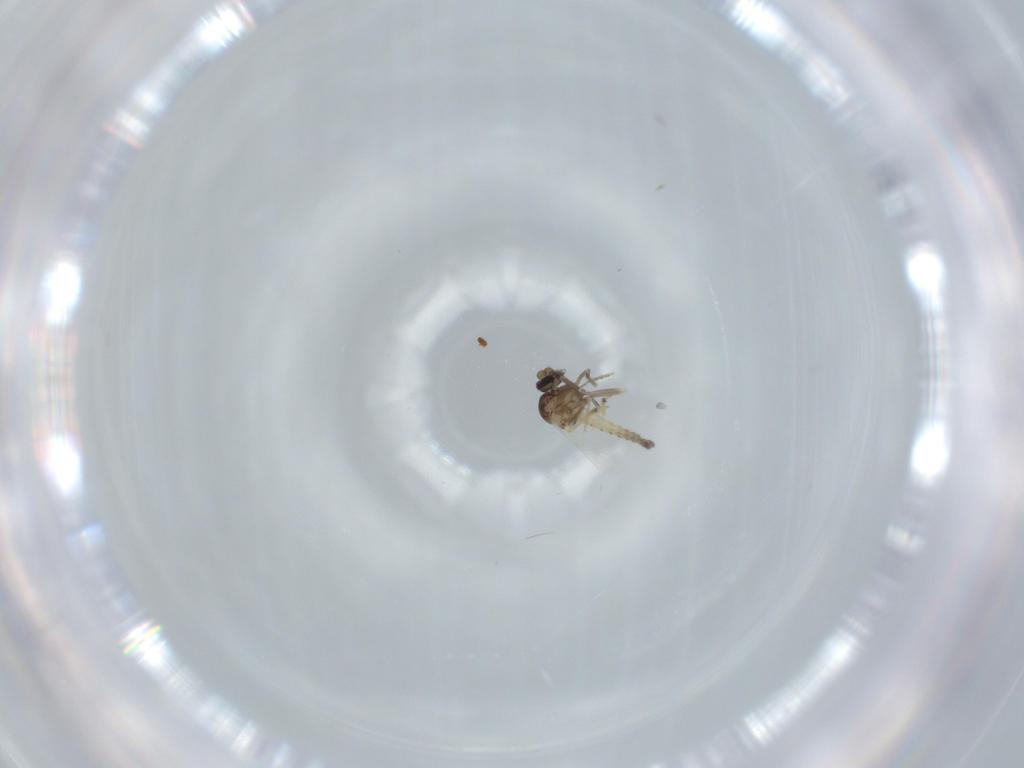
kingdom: Animalia
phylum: Arthropoda
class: Insecta
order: Diptera
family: Ceratopogonidae
